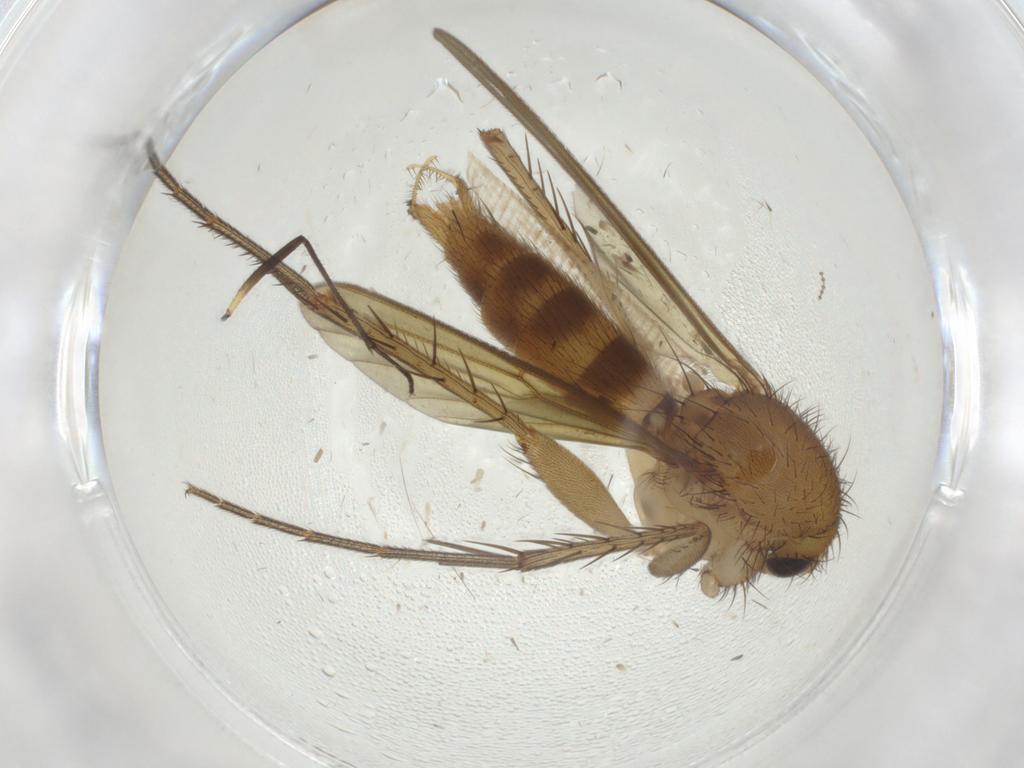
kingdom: Animalia
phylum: Arthropoda
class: Insecta
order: Diptera
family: Mycetophilidae
